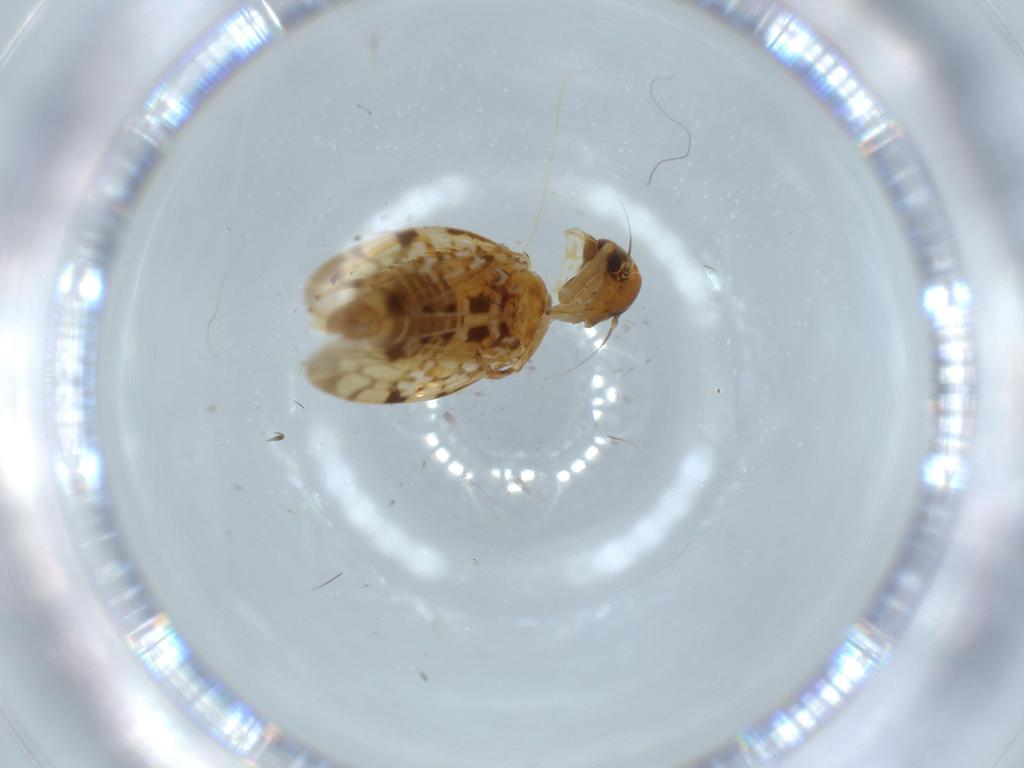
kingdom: Animalia
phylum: Arthropoda
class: Insecta
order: Hemiptera
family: Cicadellidae
